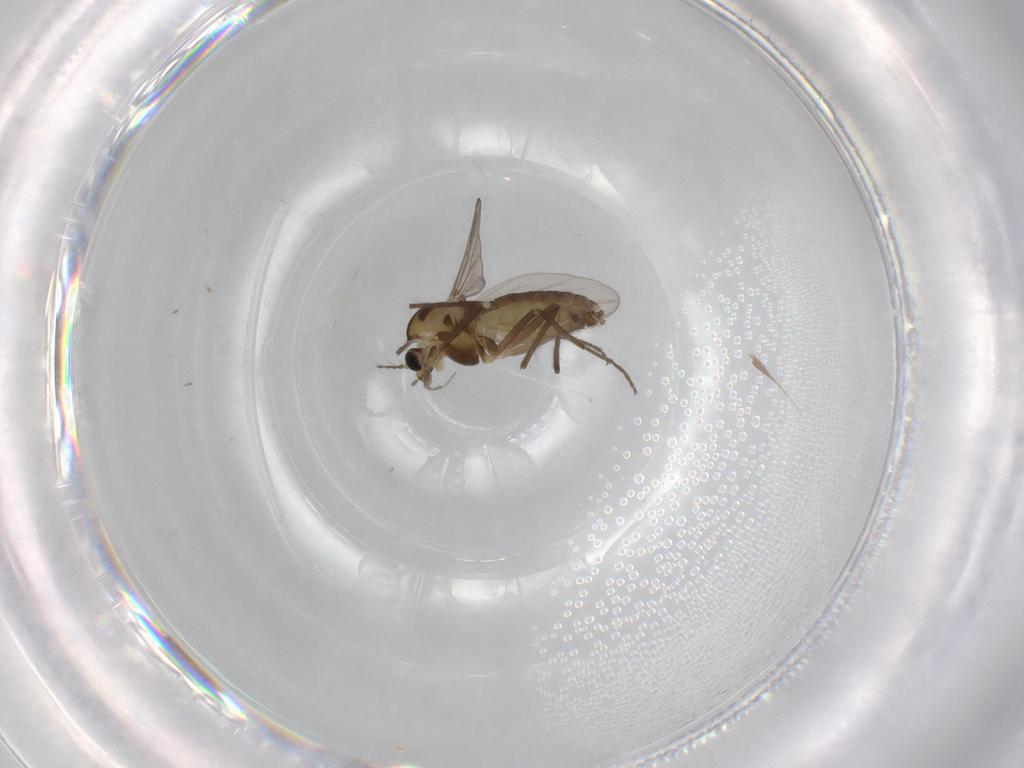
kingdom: Animalia
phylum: Arthropoda
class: Insecta
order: Diptera
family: Chironomidae
